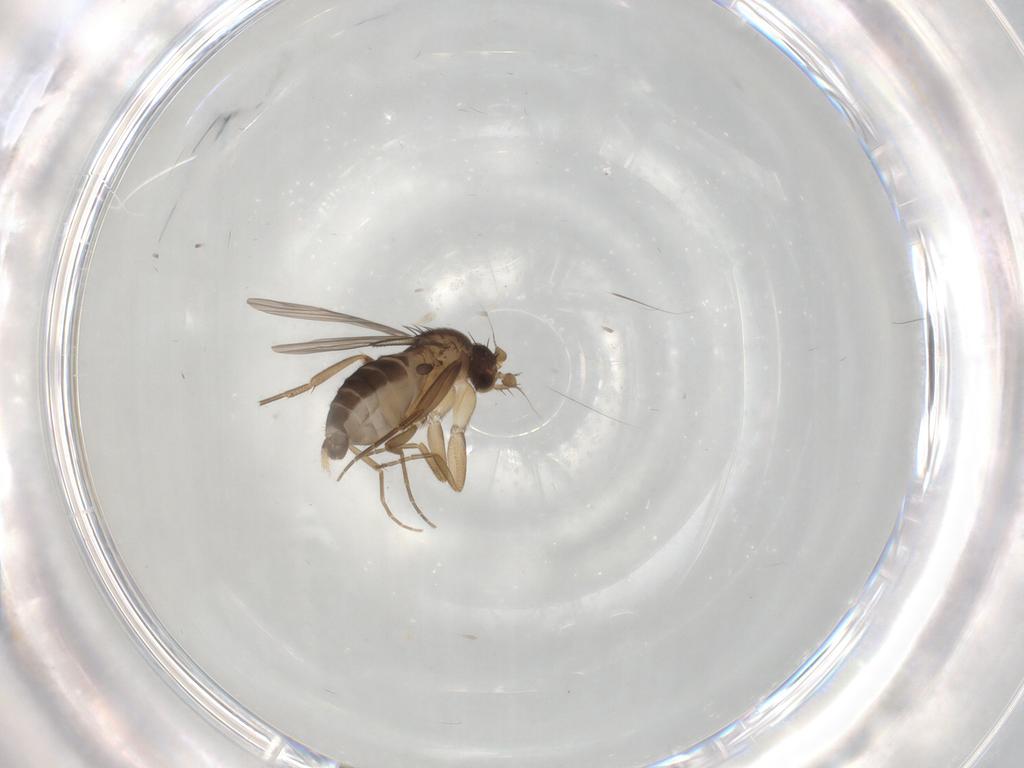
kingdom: Animalia
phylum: Arthropoda
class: Insecta
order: Diptera
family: Phoridae
